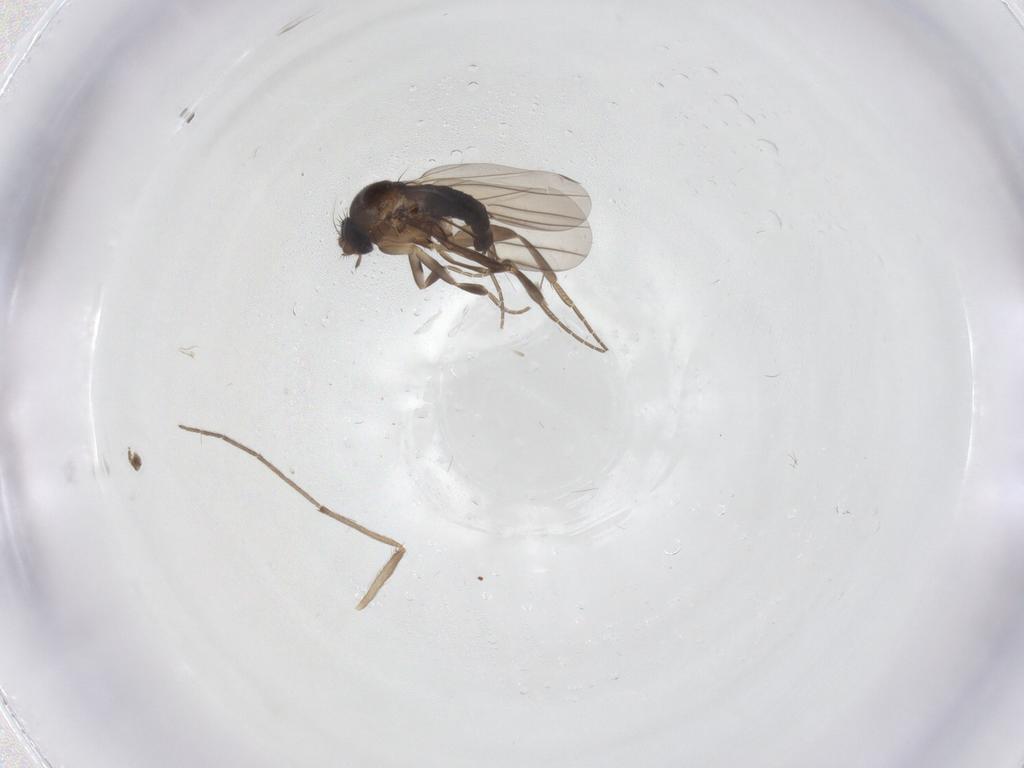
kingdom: Animalia
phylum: Arthropoda
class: Insecta
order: Diptera
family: Chironomidae
